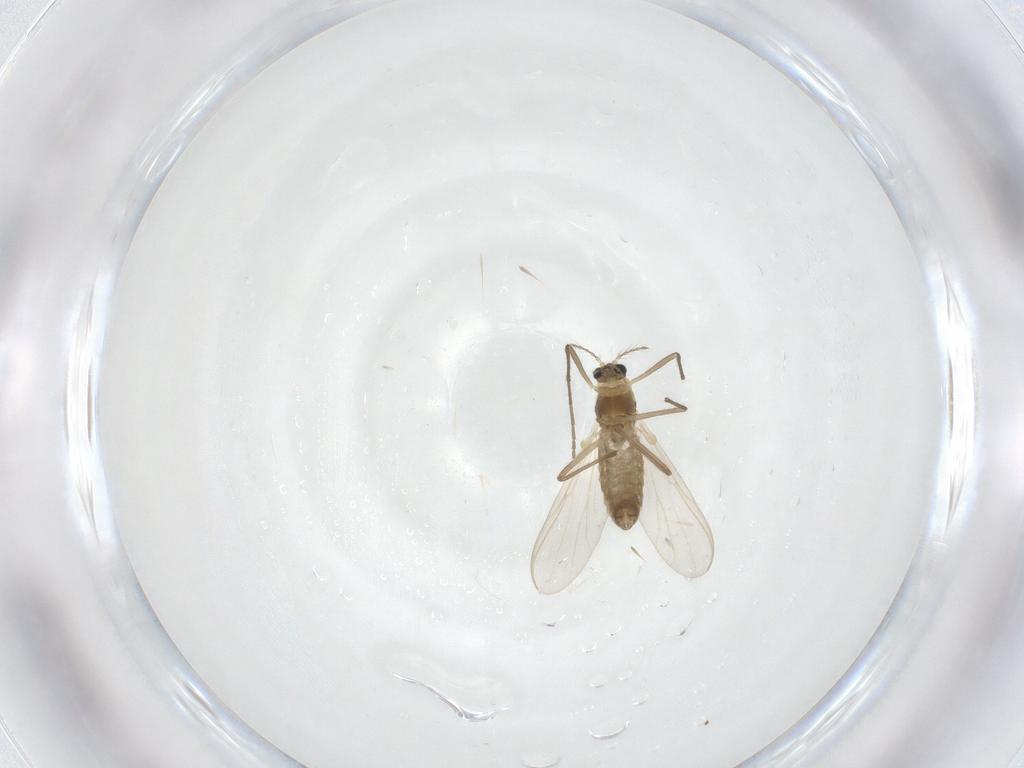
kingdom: Animalia
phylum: Arthropoda
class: Insecta
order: Diptera
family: Chironomidae
